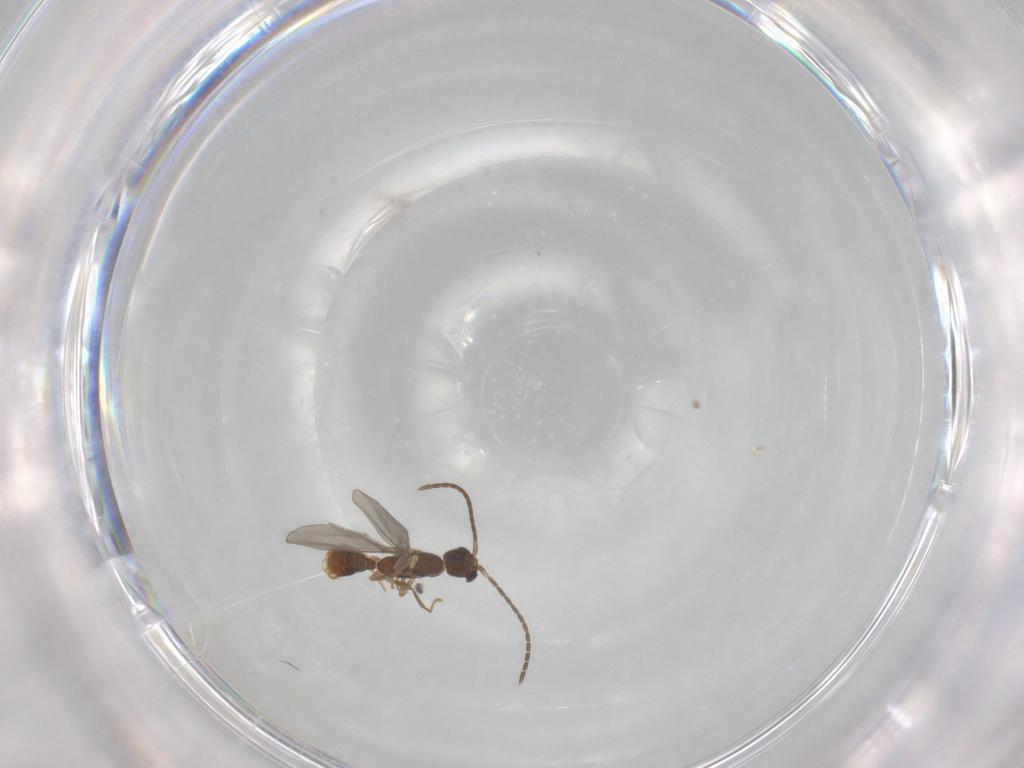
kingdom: Animalia
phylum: Arthropoda
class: Insecta
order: Hymenoptera
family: Formicidae
